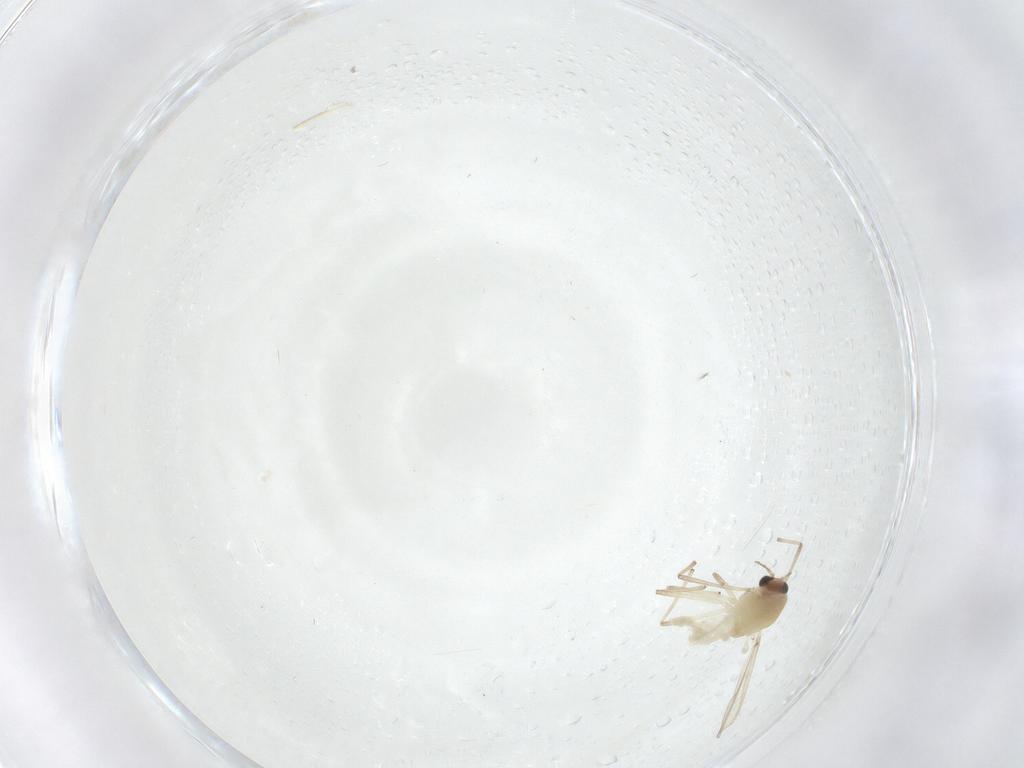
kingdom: Animalia
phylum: Arthropoda
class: Insecta
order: Diptera
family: Chironomidae
